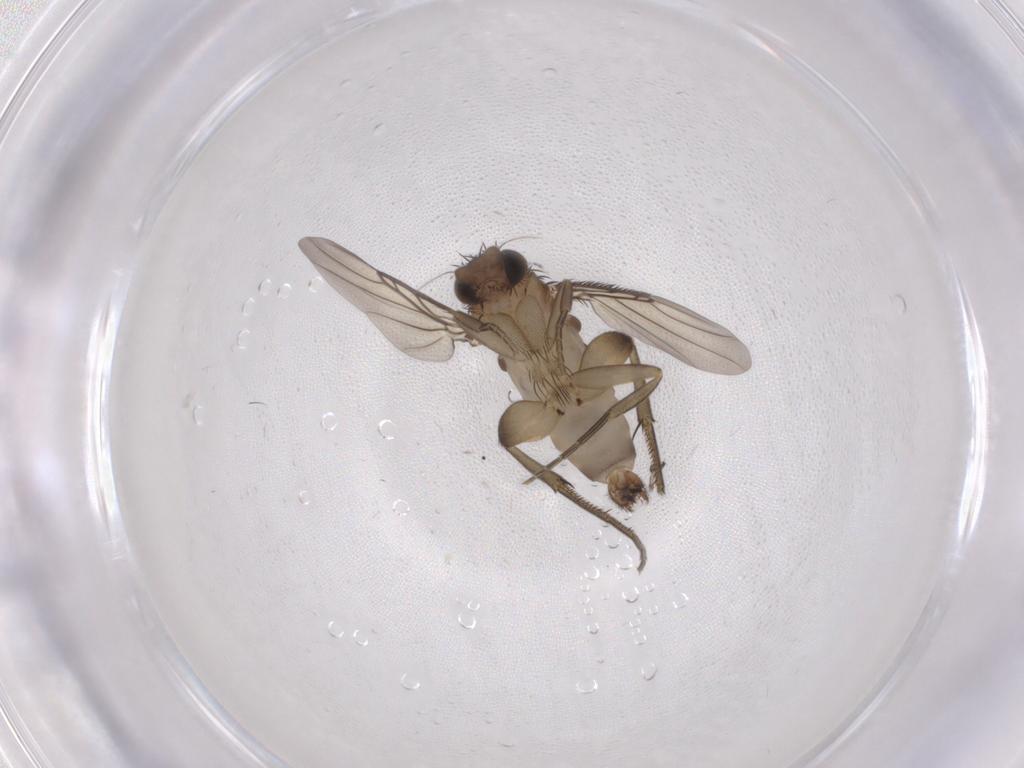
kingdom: Animalia
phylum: Arthropoda
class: Insecta
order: Diptera
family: Phoridae
